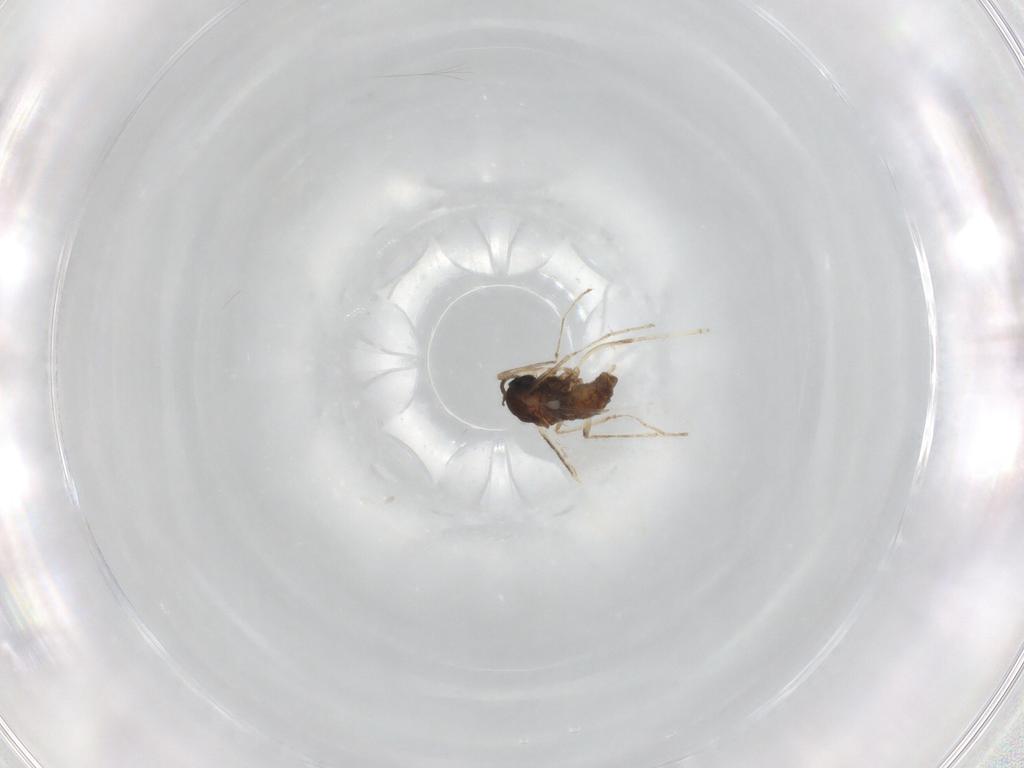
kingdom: Animalia
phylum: Arthropoda
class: Insecta
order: Diptera
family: Cecidomyiidae
